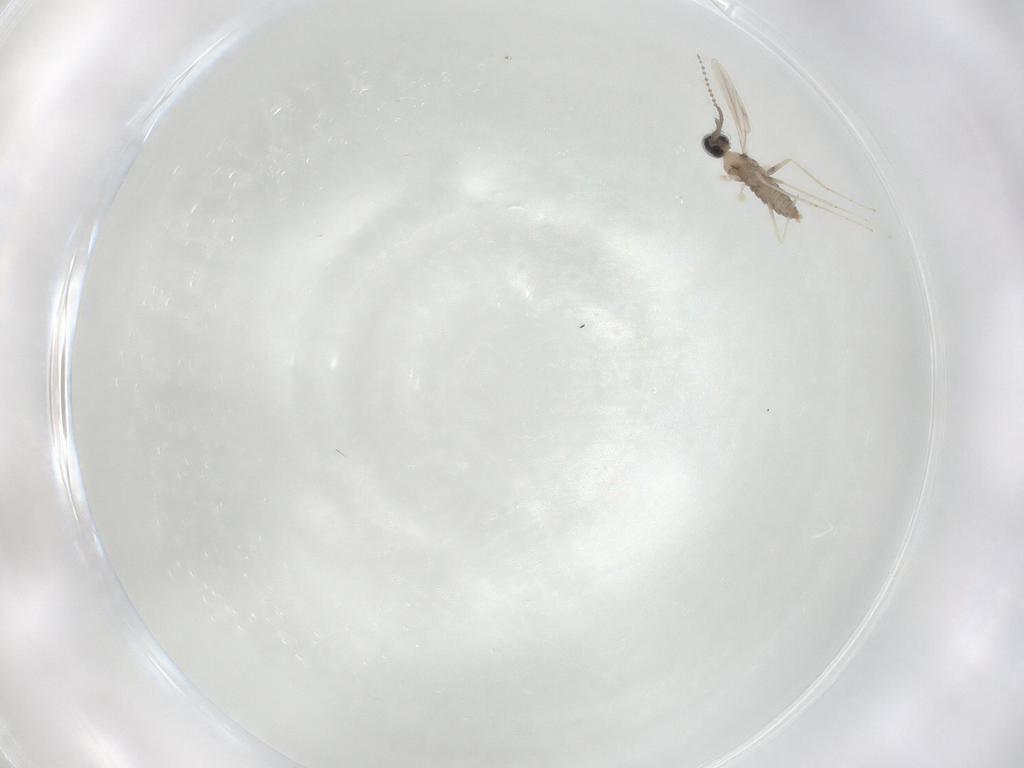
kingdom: Animalia
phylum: Arthropoda
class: Insecta
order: Diptera
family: Cecidomyiidae
